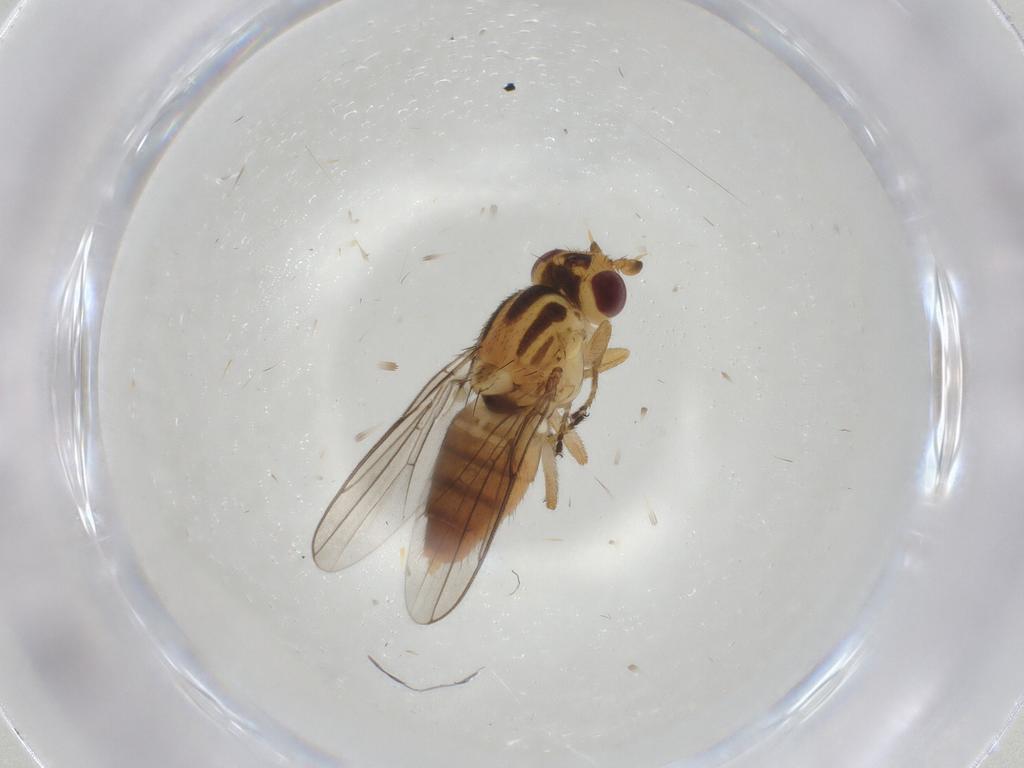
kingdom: Animalia
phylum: Arthropoda
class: Insecta
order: Diptera
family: Chloropidae
